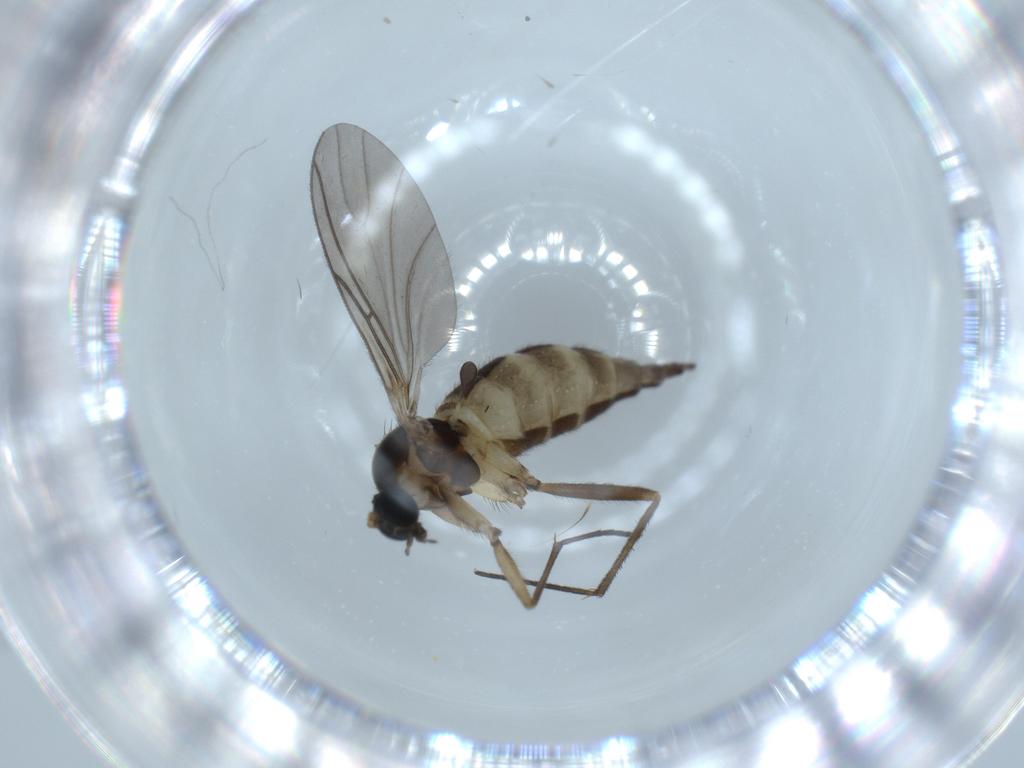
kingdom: Animalia
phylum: Arthropoda
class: Insecta
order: Diptera
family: Sciaridae
